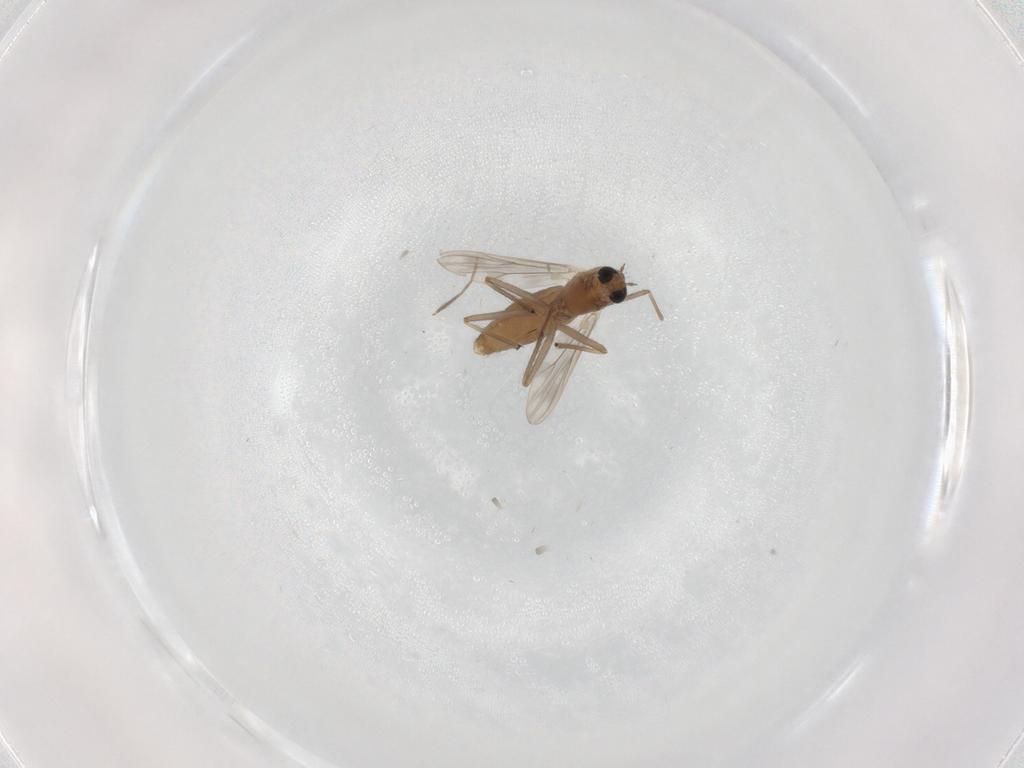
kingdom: Animalia
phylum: Arthropoda
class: Insecta
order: Diptera
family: Chironomidae
